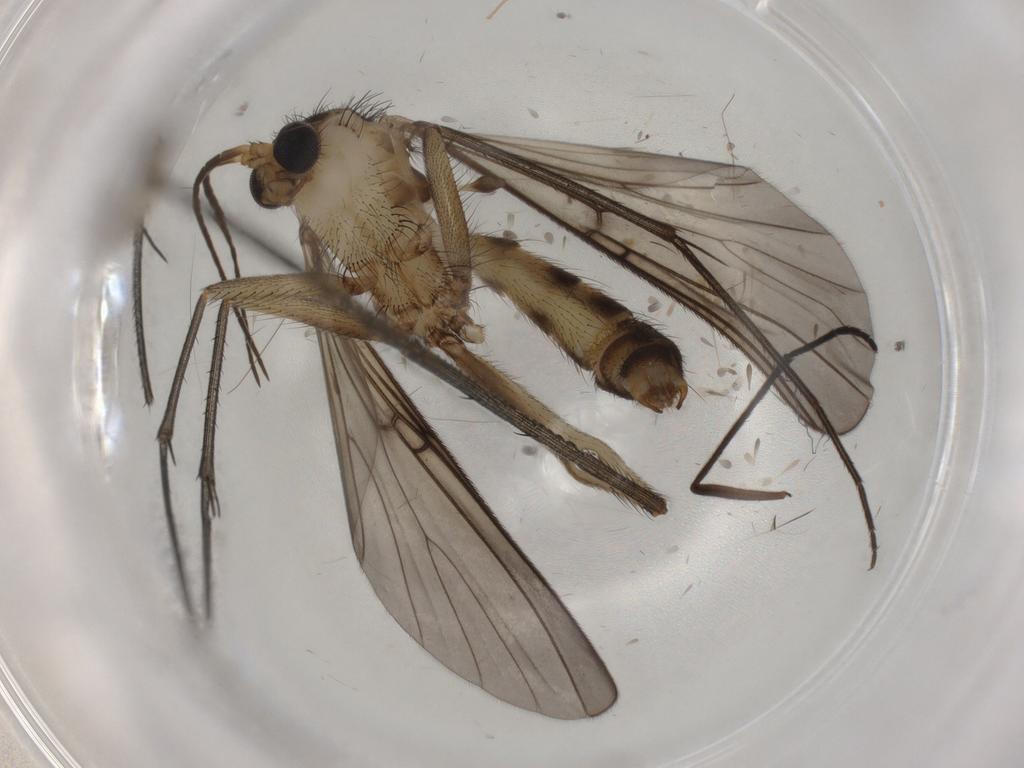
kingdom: Animalia
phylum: Arthropoda
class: Insecta
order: Diptera
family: Mycetophilidae
